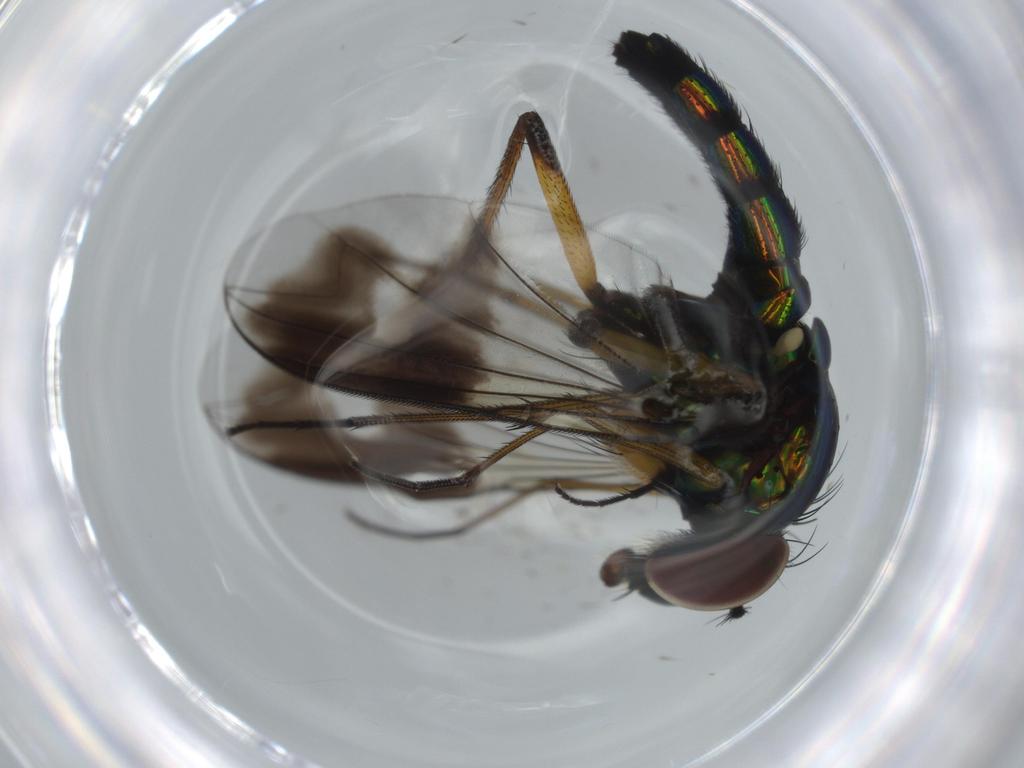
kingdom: Animalia
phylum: Arthropoda
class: Insecta
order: Diptera
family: Dolichopodidae
